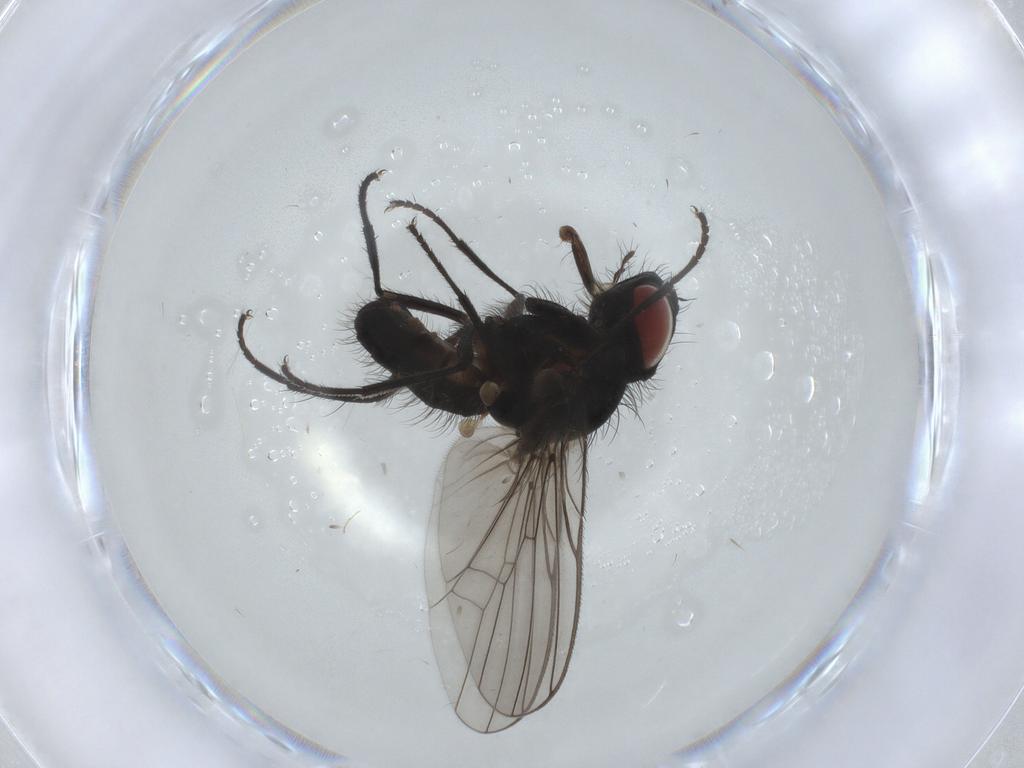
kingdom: Animalia
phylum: Arthropoda
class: Insecta
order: Diptera
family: Anthomyiidae
